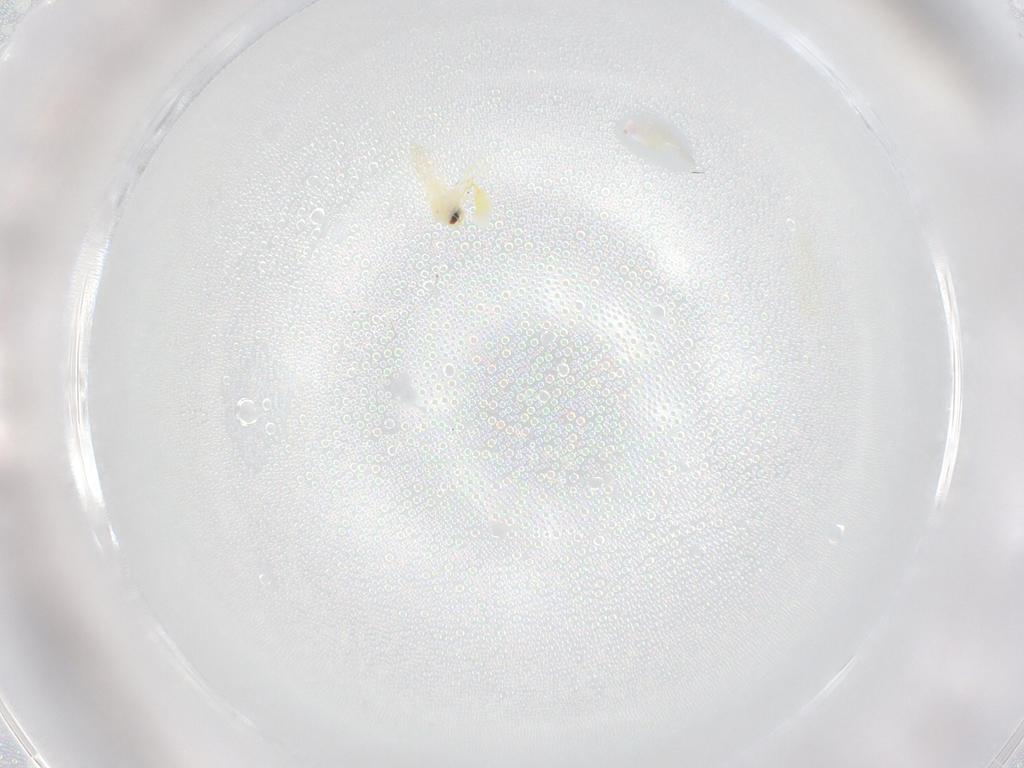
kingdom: Animalia
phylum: Arthropoda
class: Insecta
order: Hemiptera
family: Aleyrodidae
